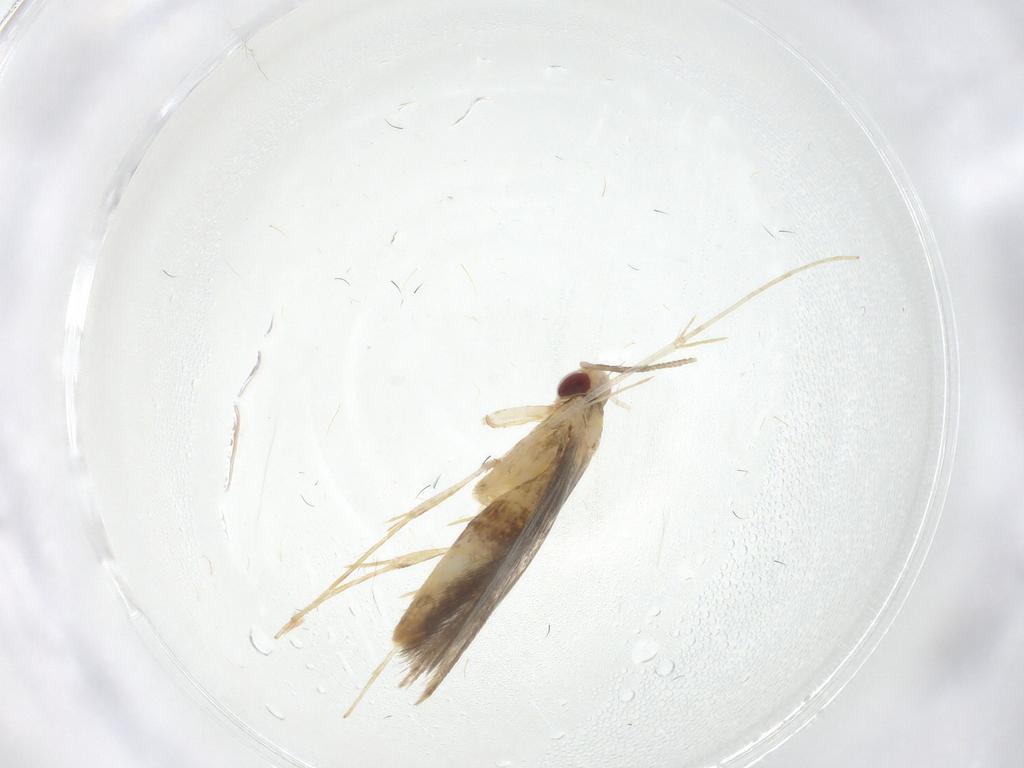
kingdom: Animalia
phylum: Arthropoda
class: Insecta
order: Lepidoptera
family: Gracillariidae
